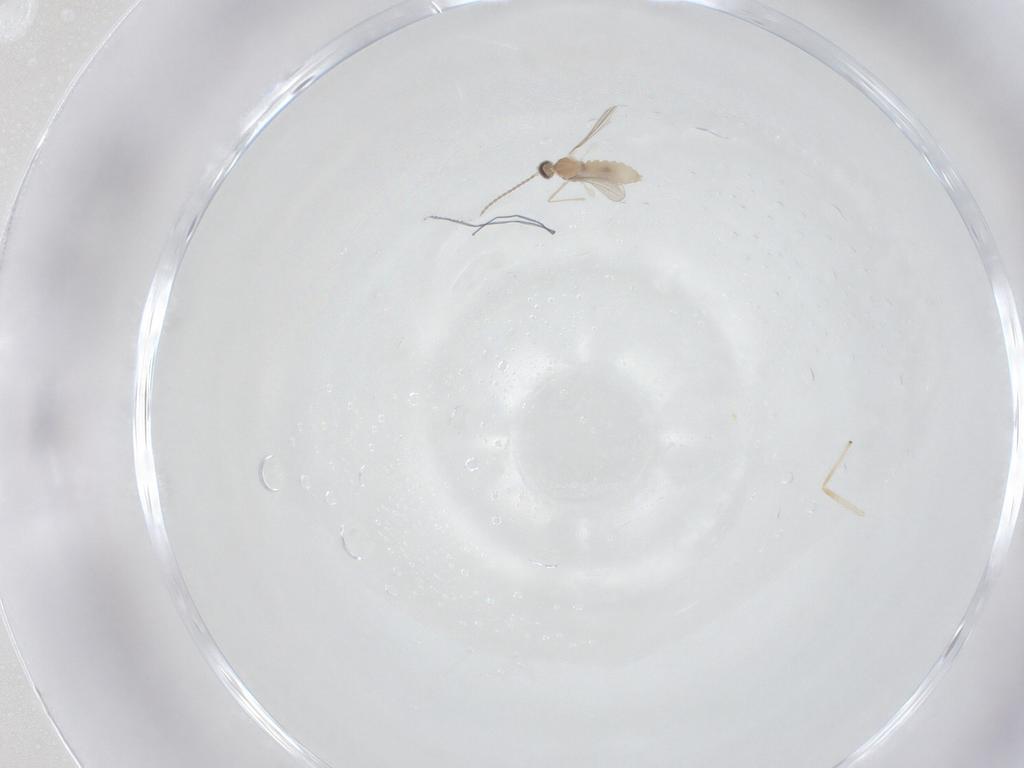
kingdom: Animalia
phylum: Arthropoda
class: Insecta
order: Diptera
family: Chironomidae
